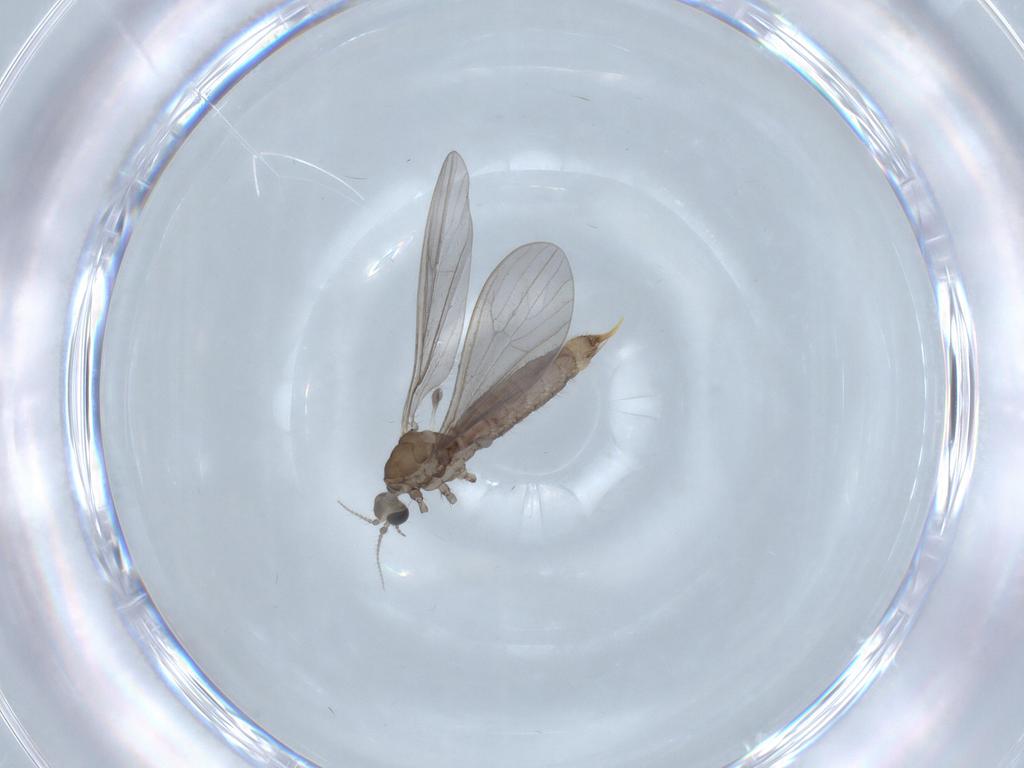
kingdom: Animalia
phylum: Arthropoda
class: Insecta
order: Diptera
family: Limoniidae
